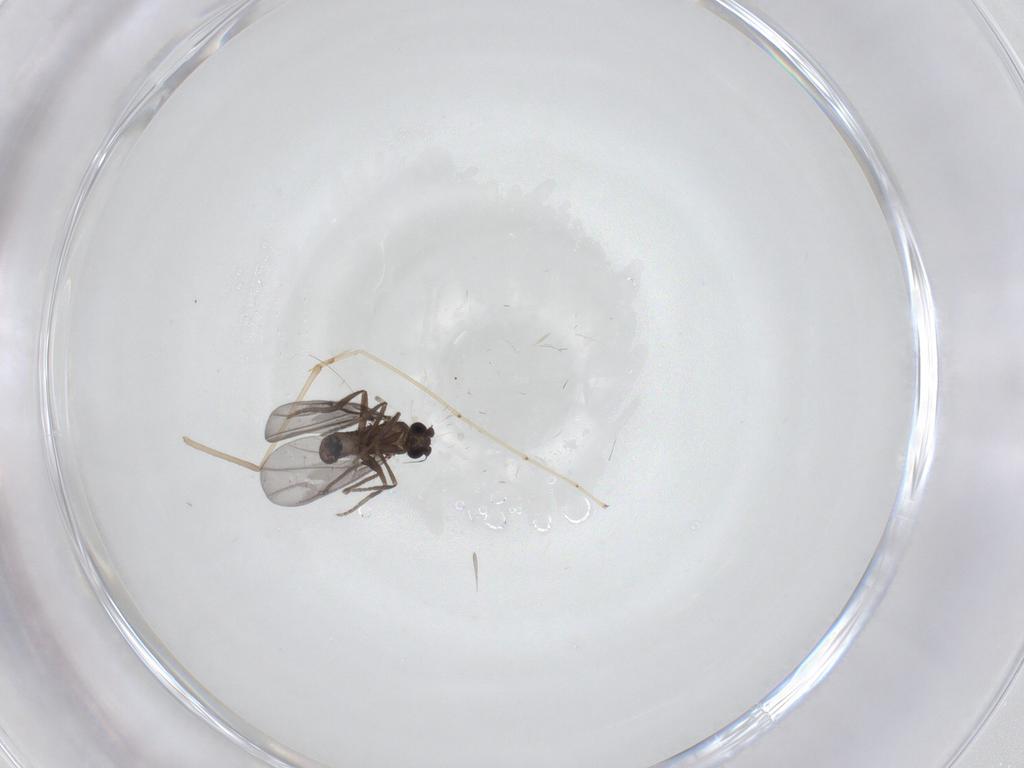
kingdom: Animalia
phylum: Arthropoda
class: Insecta
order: Diptera
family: Phoridae
